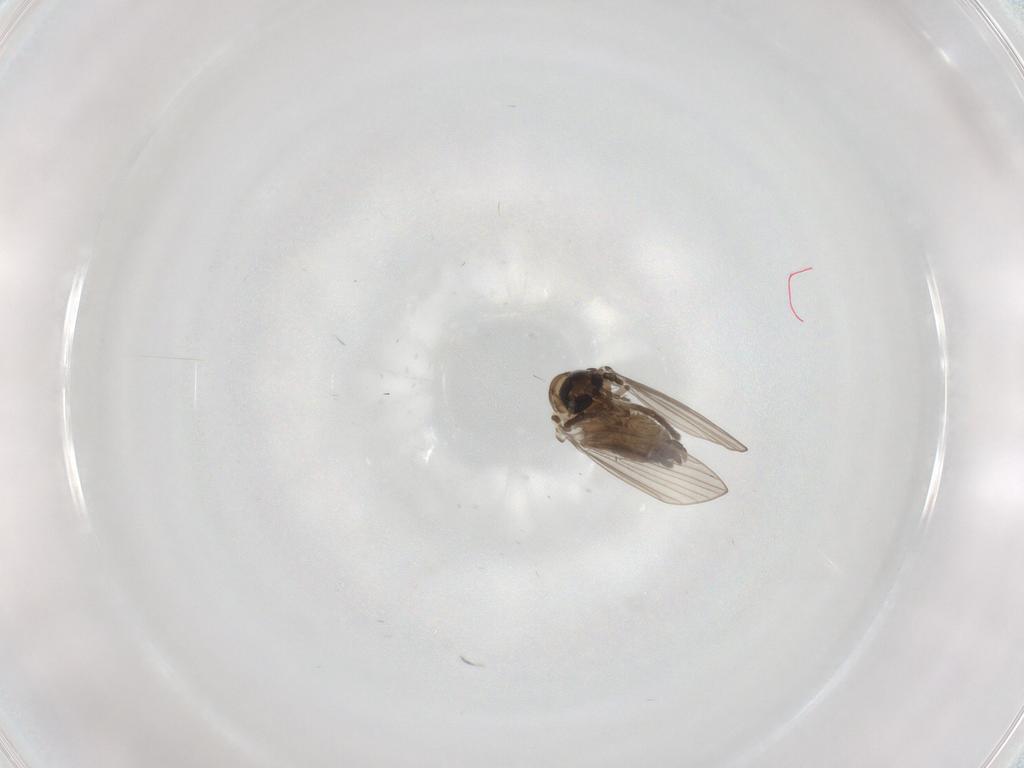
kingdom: Animalia
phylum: Arthropoda
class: Insecta
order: Diptera
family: Psychodidae
